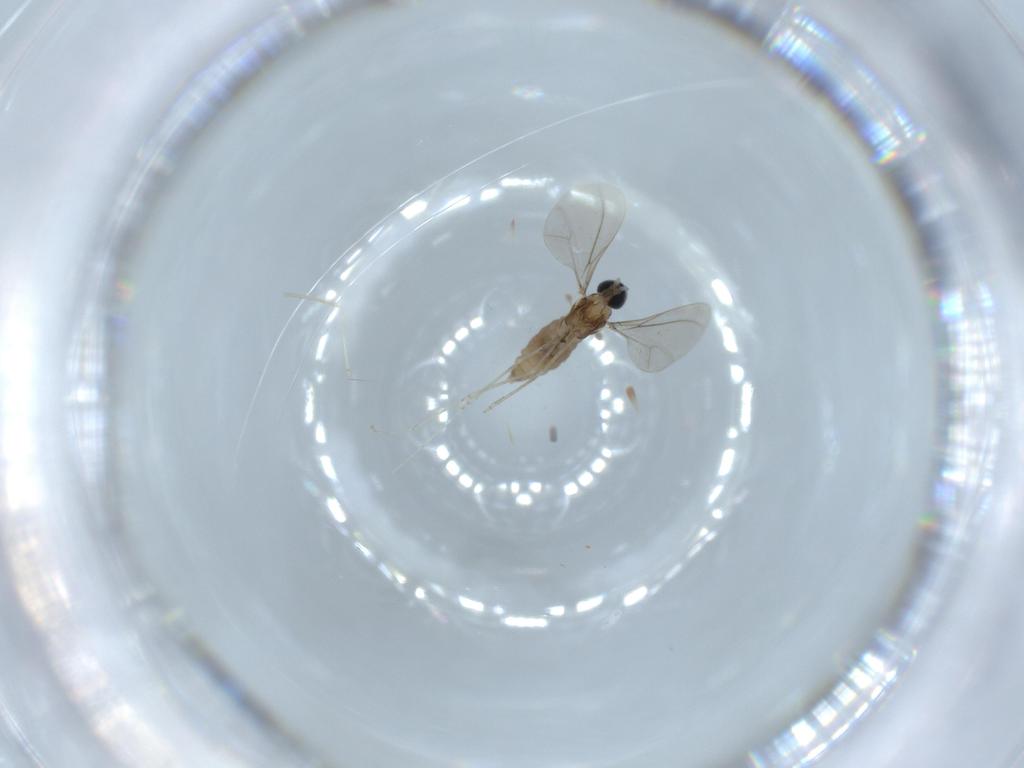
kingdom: Animalia
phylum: Arthropoda
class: Insecta
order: Diptera
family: Cecidomyiidae
